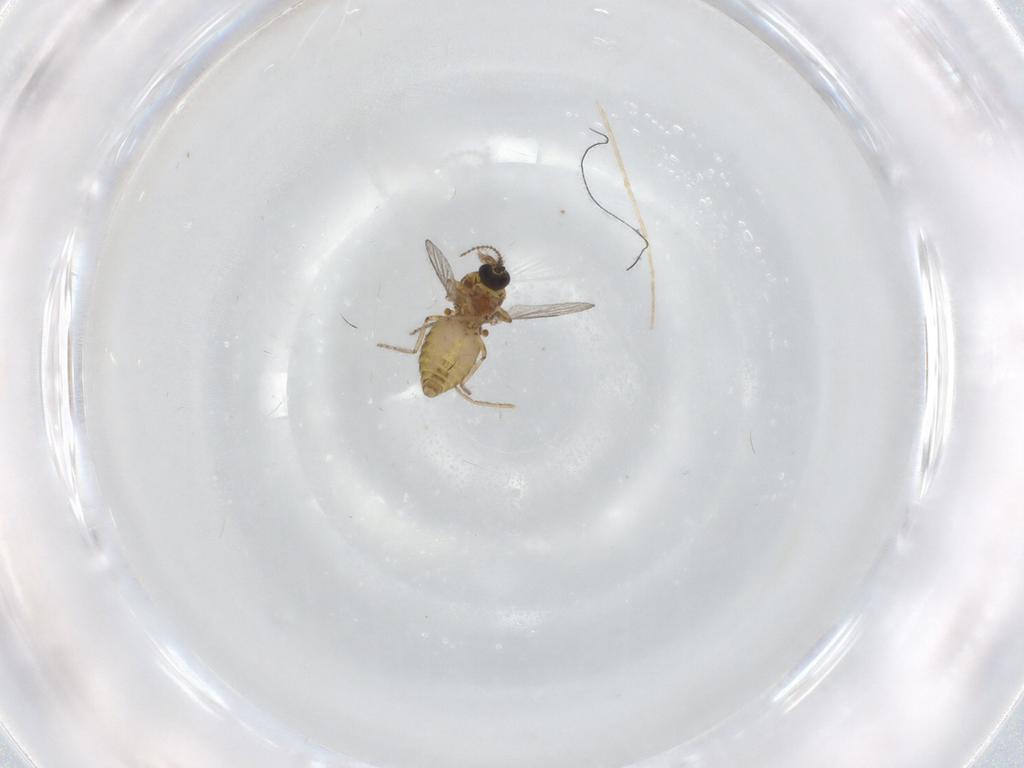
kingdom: Animalia
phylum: Arthropoda
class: Insecta
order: Diptera
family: Ceratopogonidae
